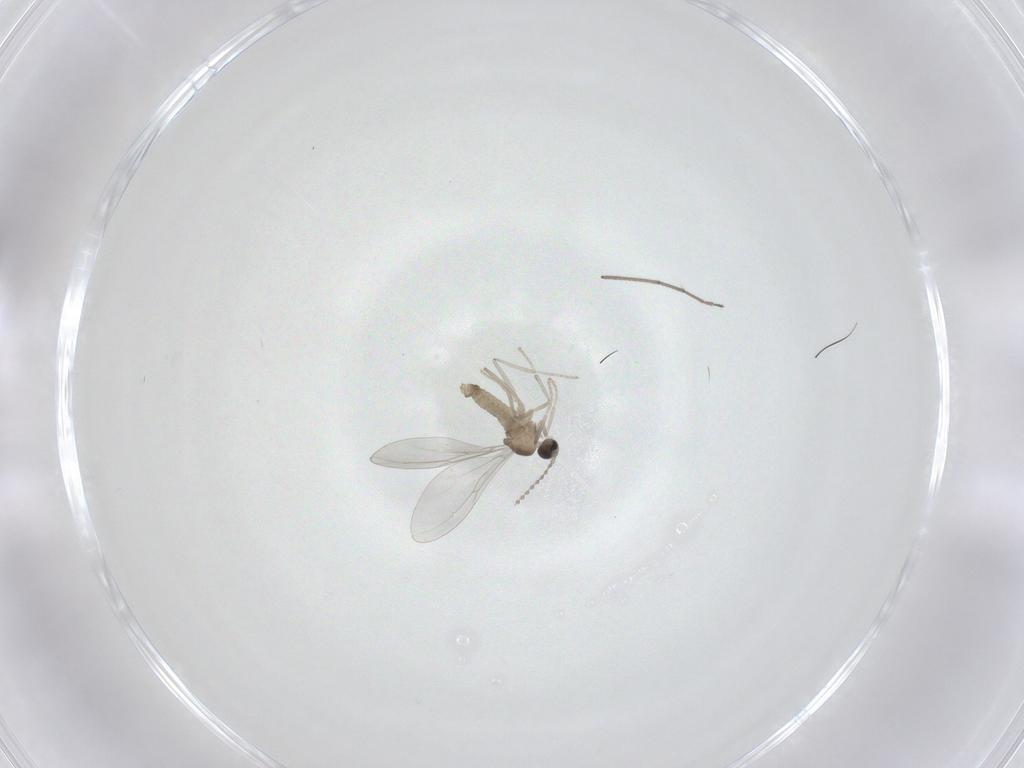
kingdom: Animalia
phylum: Arthropoda
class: Insecta
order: Diptera
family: Cecidomyiidae
